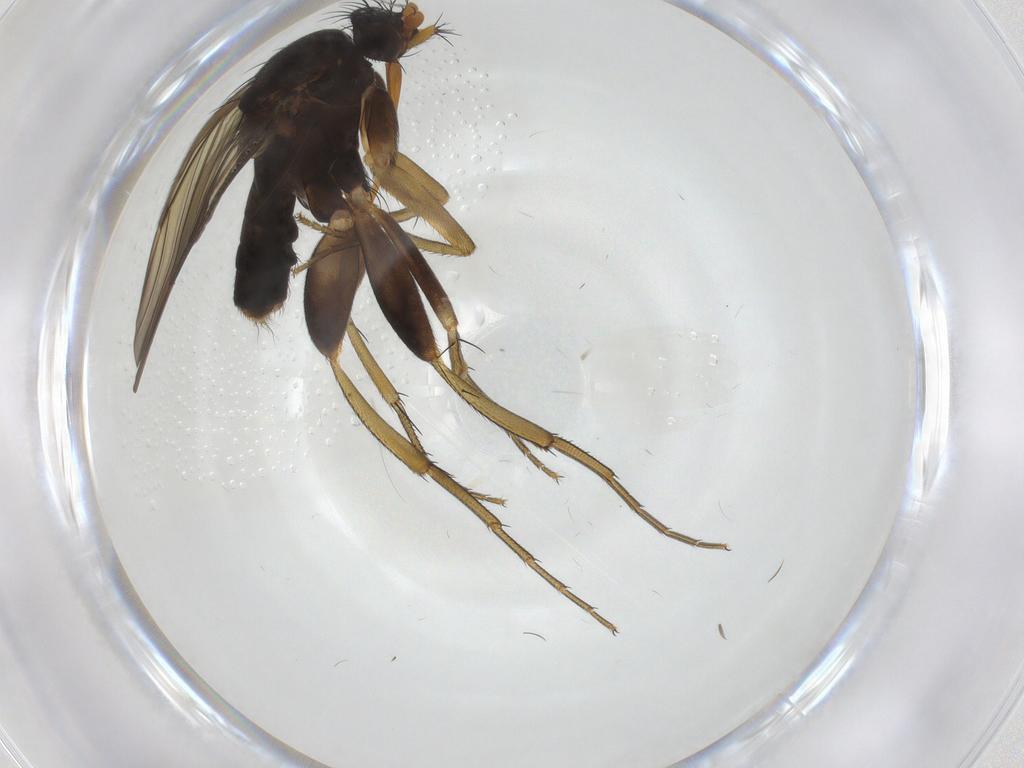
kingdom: Animalia
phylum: Arthropoda
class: Insecta
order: Diptera
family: Phoridae
